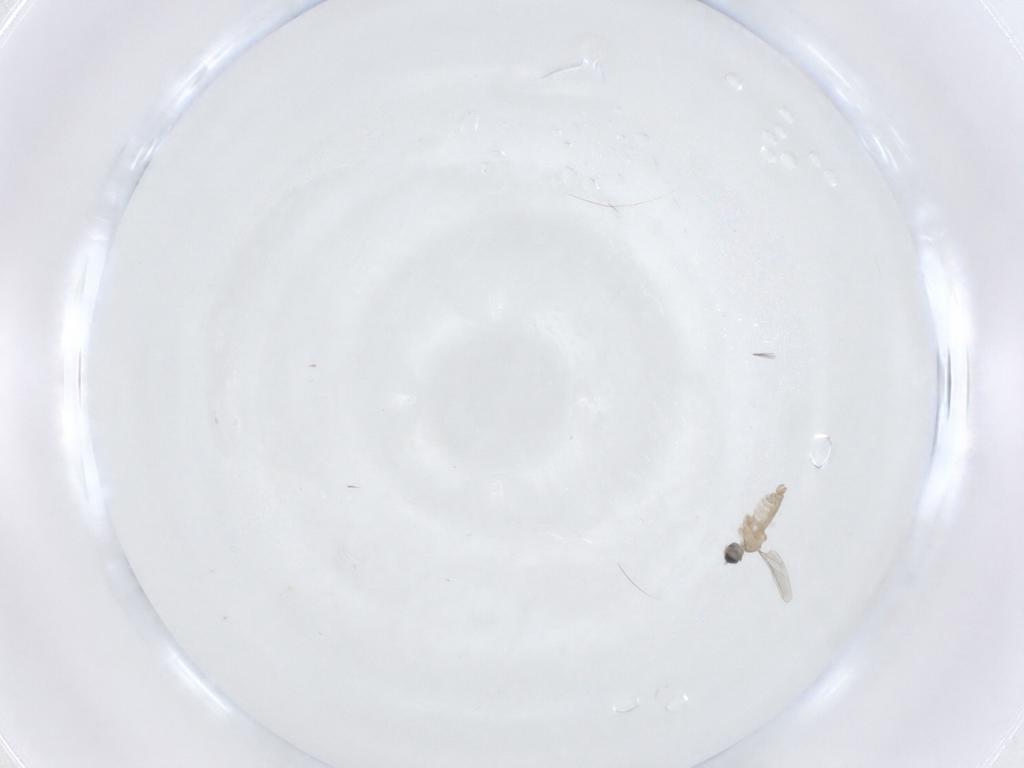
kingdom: Animalia
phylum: Arthropoda
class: Insecta
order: Diptera
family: Cecidomyiidae
